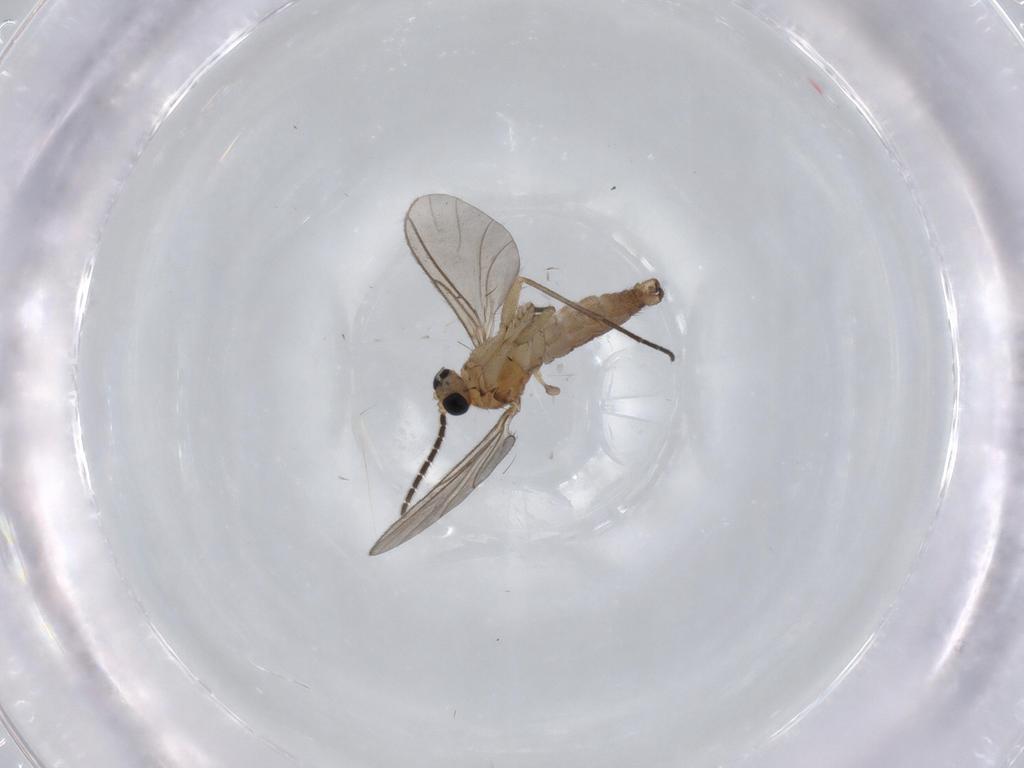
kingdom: Animalia
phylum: Arthropoda
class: Insecta
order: Diptera
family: Sciaridae
